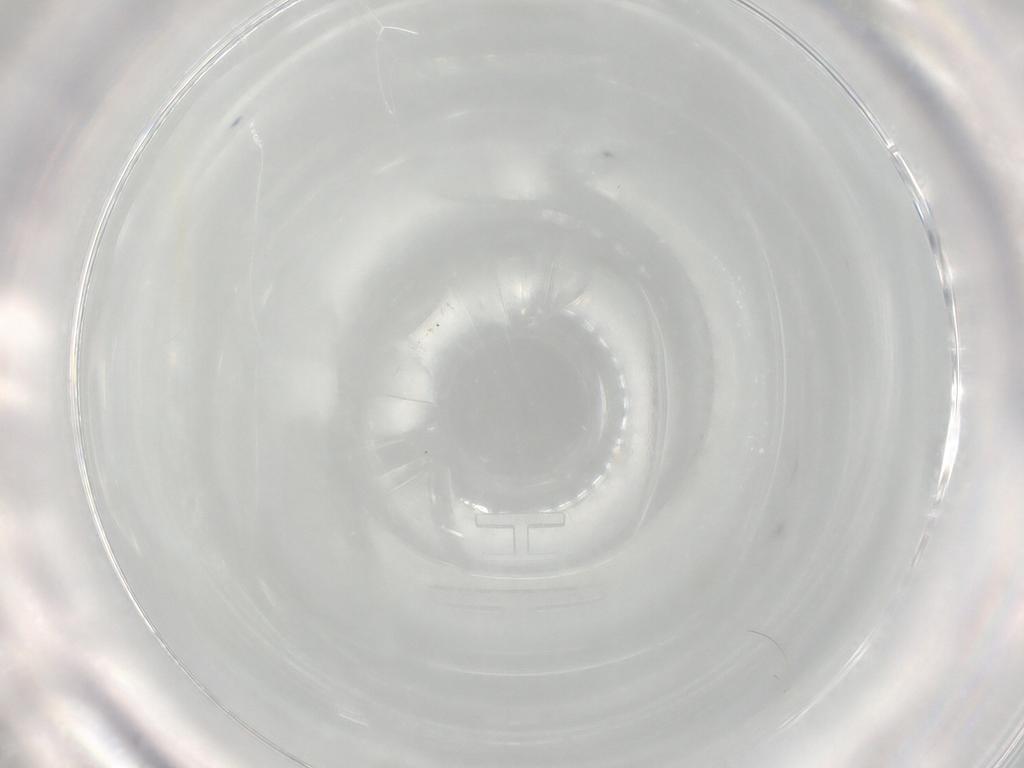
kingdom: Animalia
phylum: Arthropoda
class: Insecta
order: Diptera
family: Syrphidae
